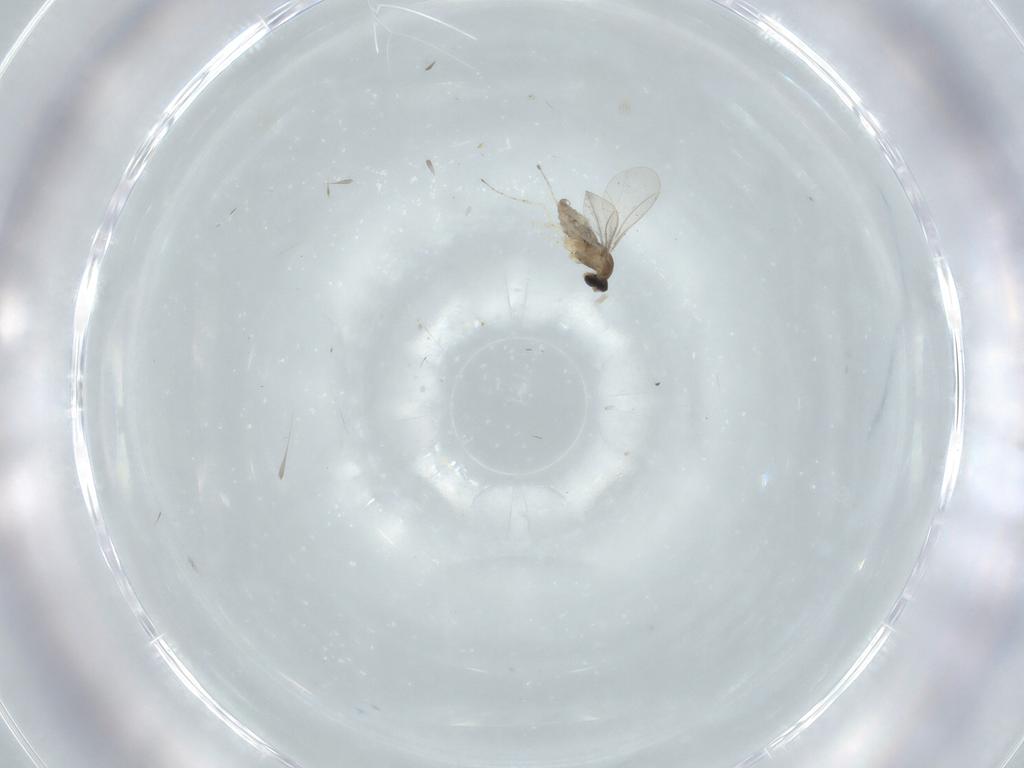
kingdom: Animalia
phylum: Arthropoda
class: Insecta
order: Diptera
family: Cecidomyiidae
